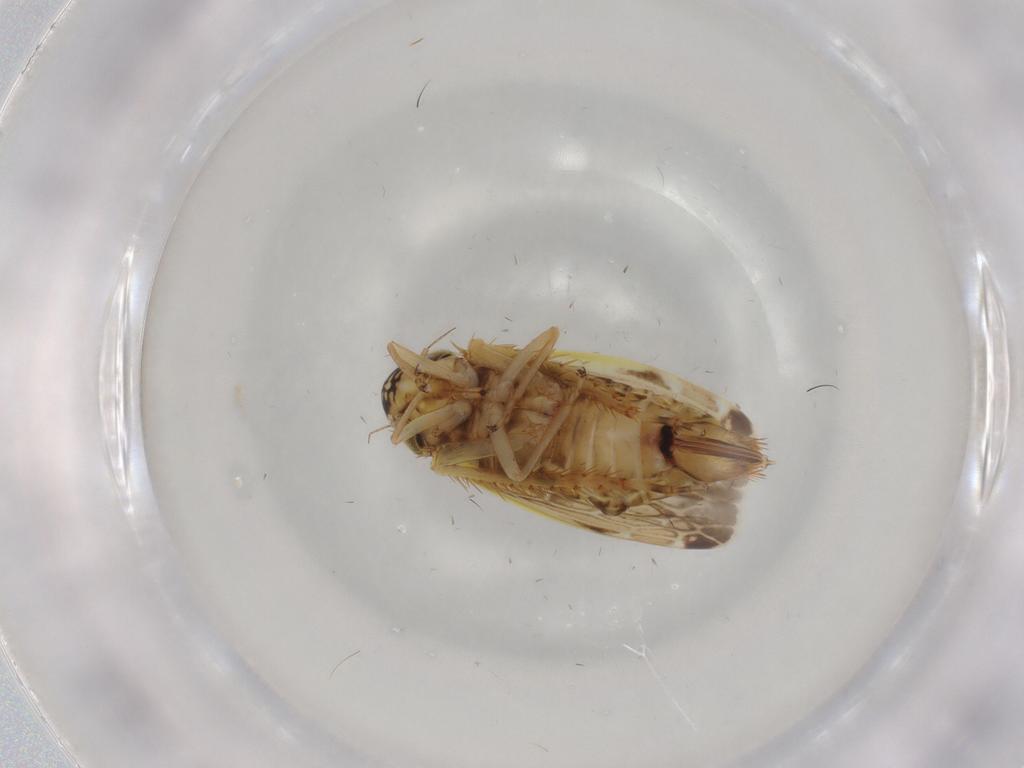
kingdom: Animalia
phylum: Arthropoda
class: Insecta
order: Hemiptera
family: Cicadellidae
